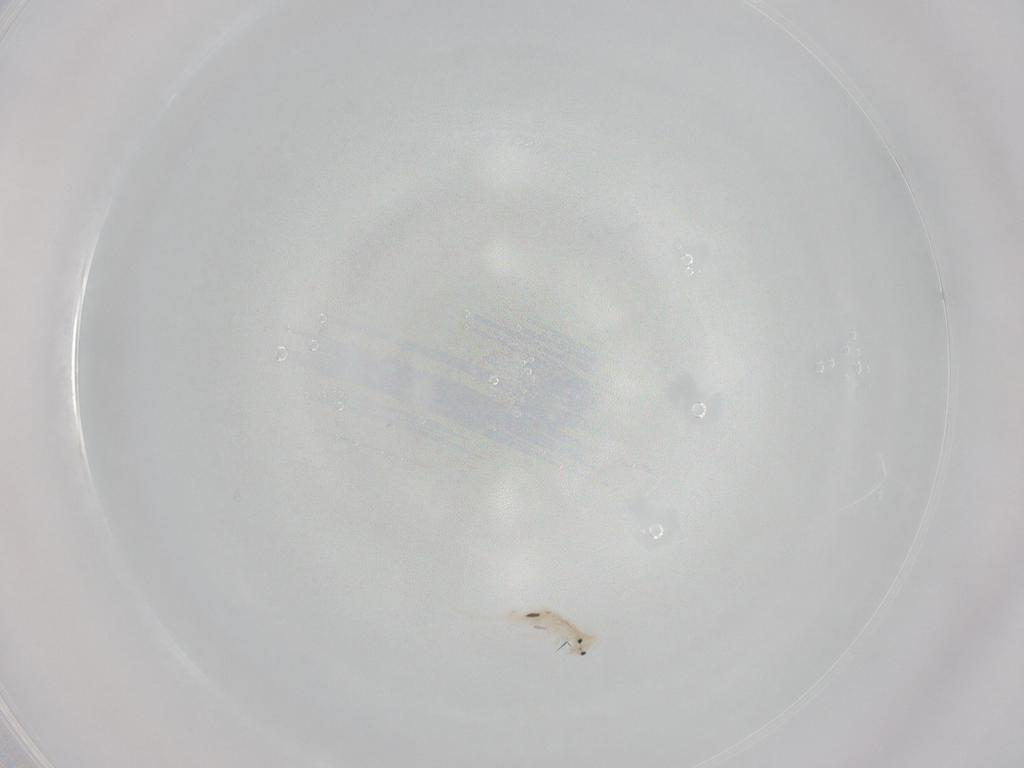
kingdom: Animalia
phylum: Arthropoda
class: Collembola
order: Entomobryomorpha
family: Entomobryidae
